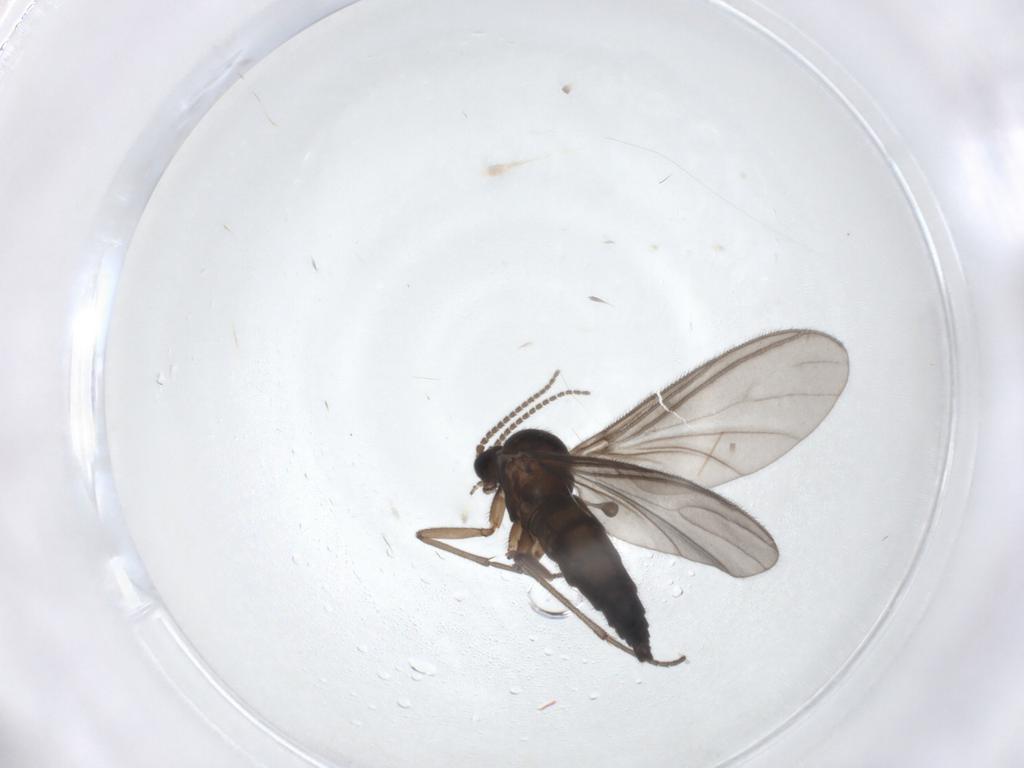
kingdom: Animalia
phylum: Arthropoda
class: Insecta
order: Diptera
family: Sciaridae
